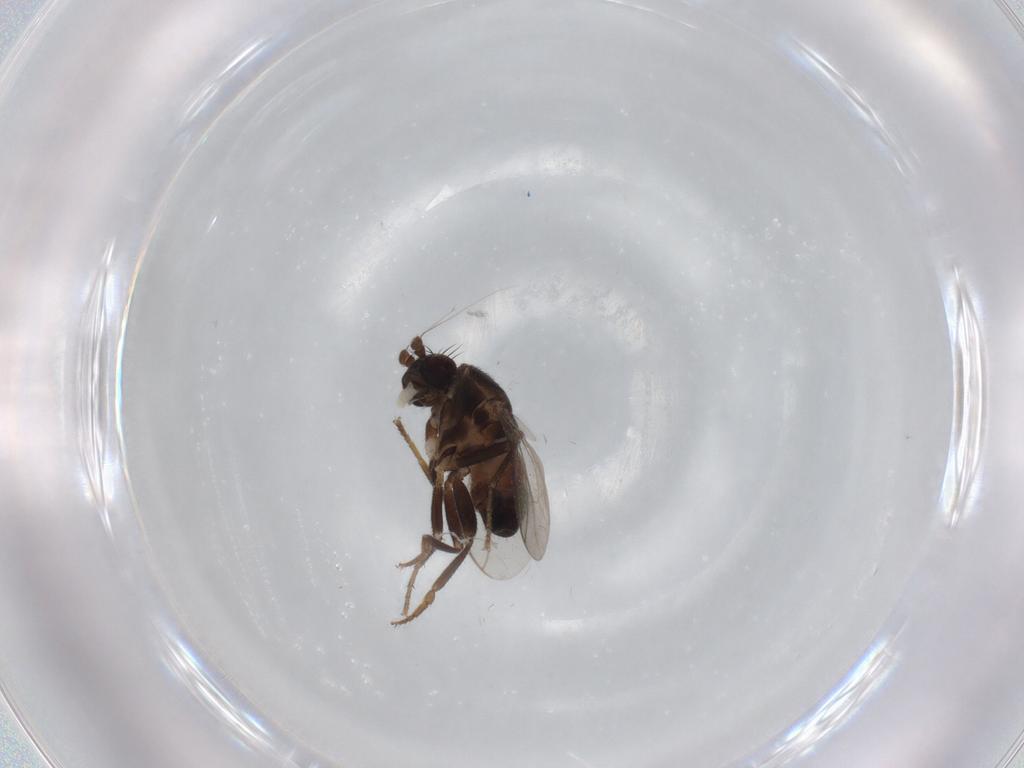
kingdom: Animalia
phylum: Arthropoda
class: Insecta
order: Diptera
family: Sphaeroceridae
